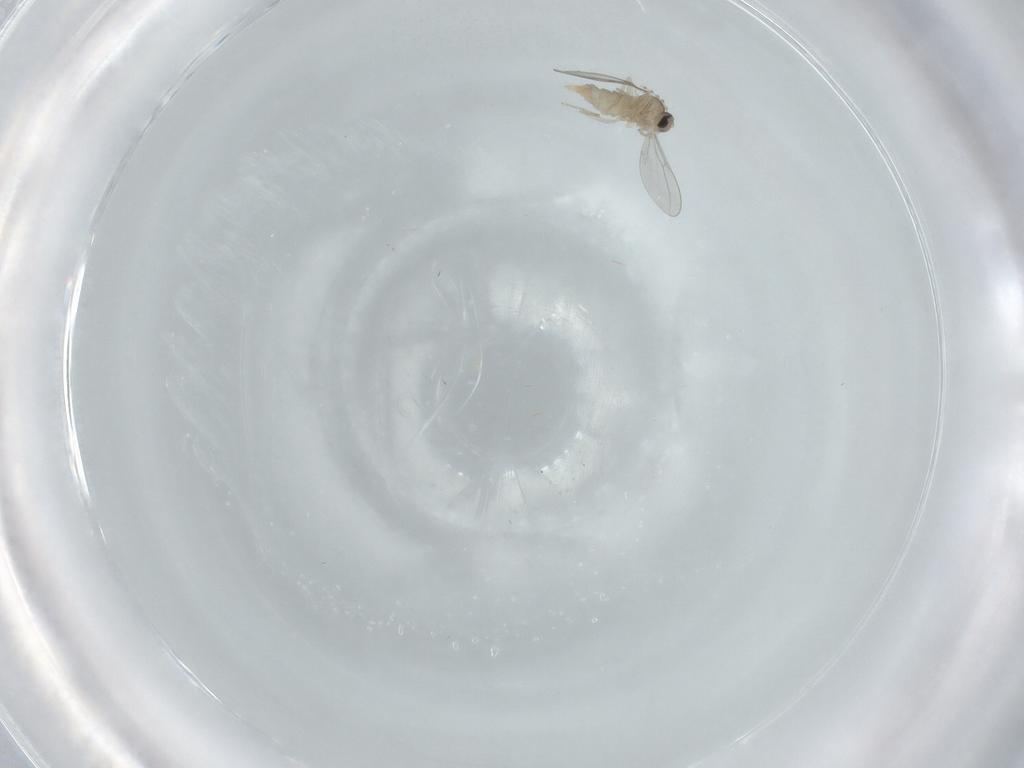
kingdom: Animalia
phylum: Arthropoda
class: Insecta
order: Diptera
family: Cecidomyiidae
